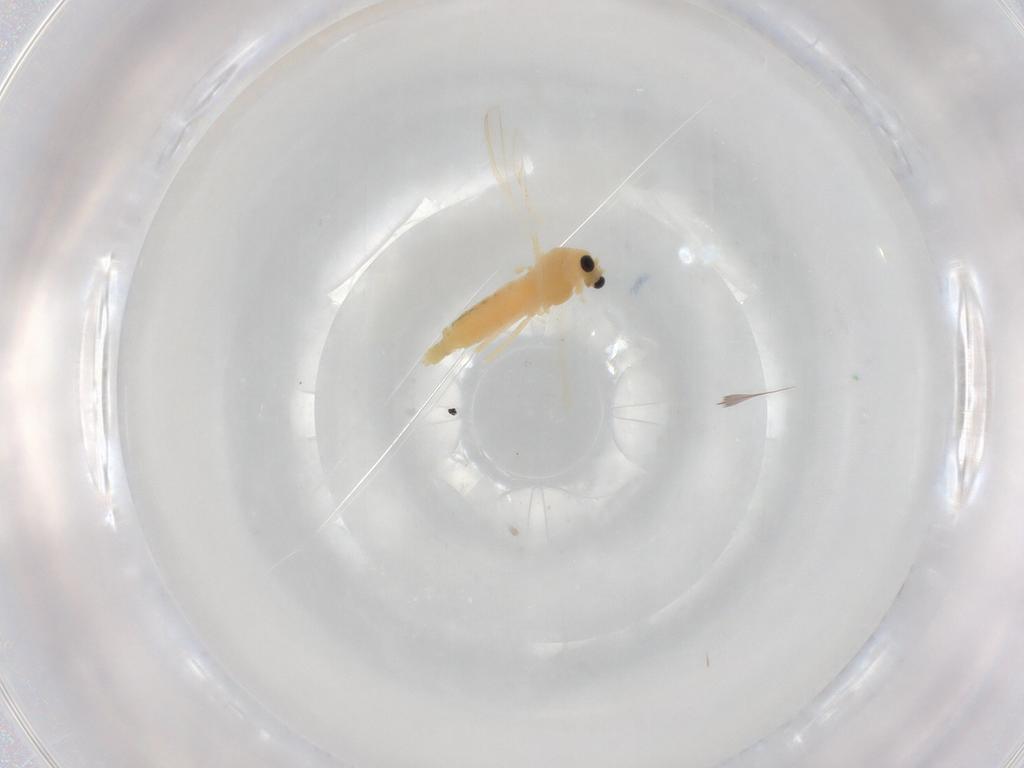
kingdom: Animalia
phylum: Arthropoda
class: Insecta
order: Diptera
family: Chironomidae
